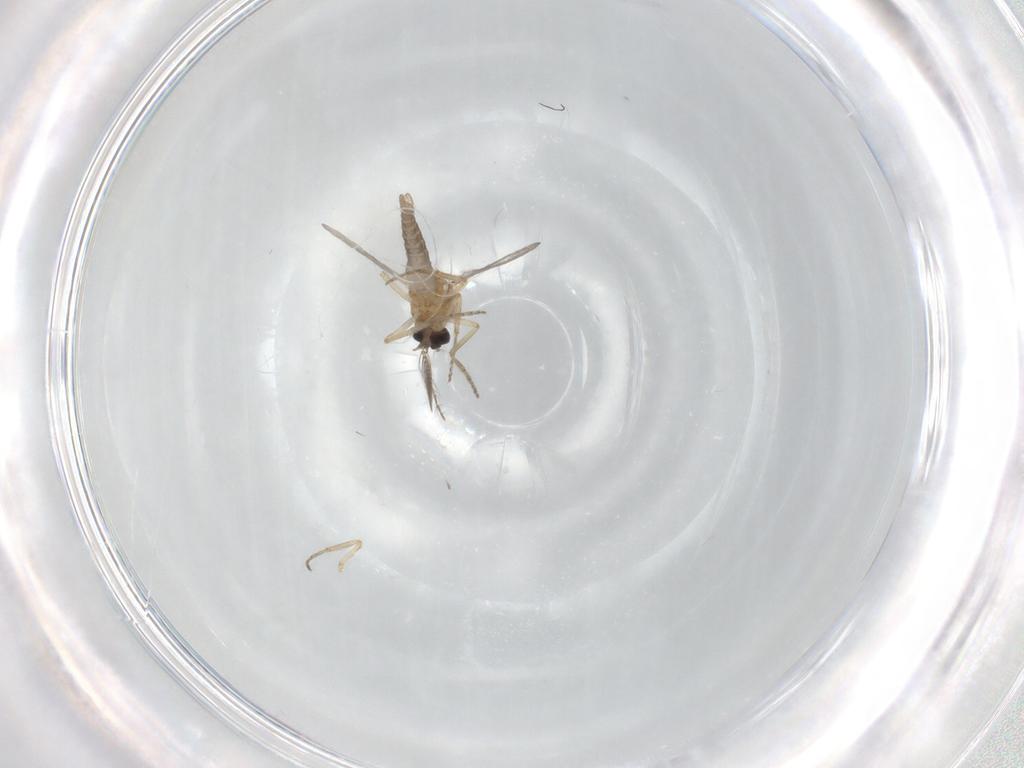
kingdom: Animalia
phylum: Arthropoda
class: Insecta
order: Diptera
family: Ceratopogonidae
